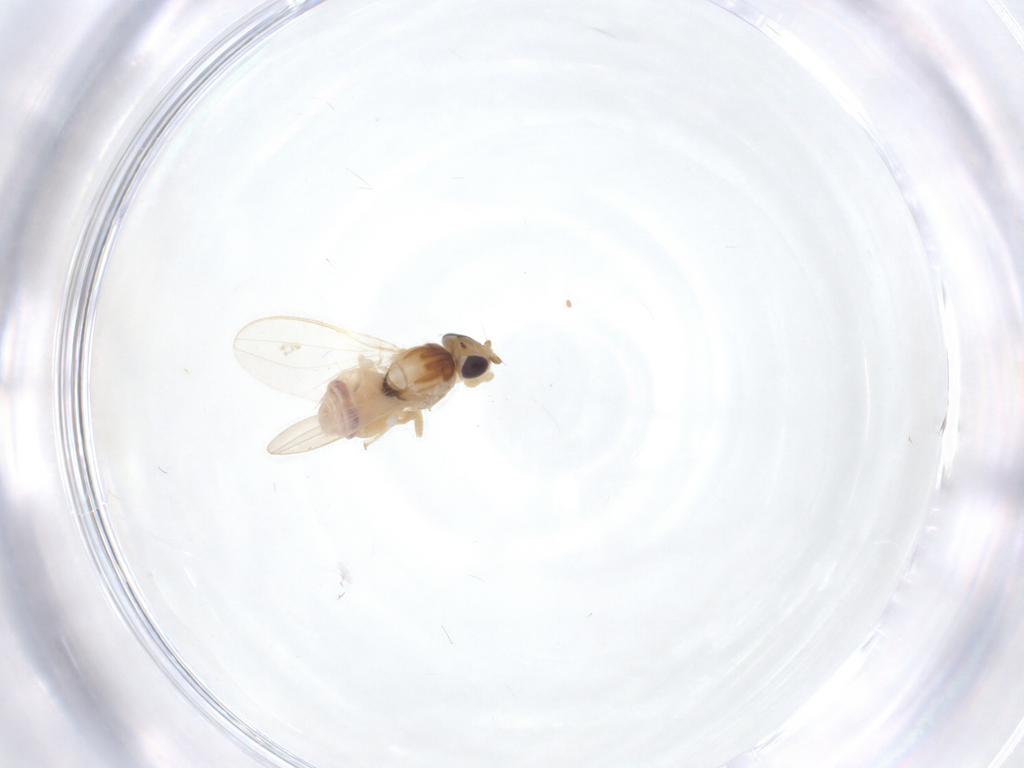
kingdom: Animalia
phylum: Arthropoda
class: Insecta
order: Diptera
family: Chloropidae
